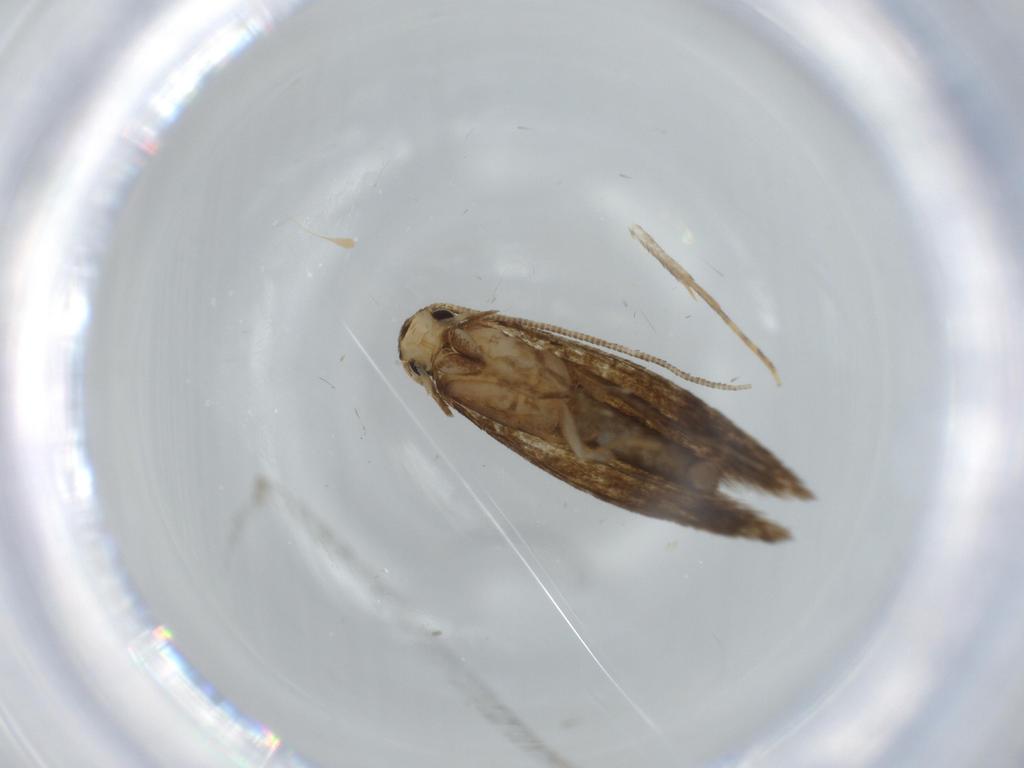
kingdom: Animalia
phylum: Arthropoda
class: Insecta
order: Lepidoptera
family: Tineidae
